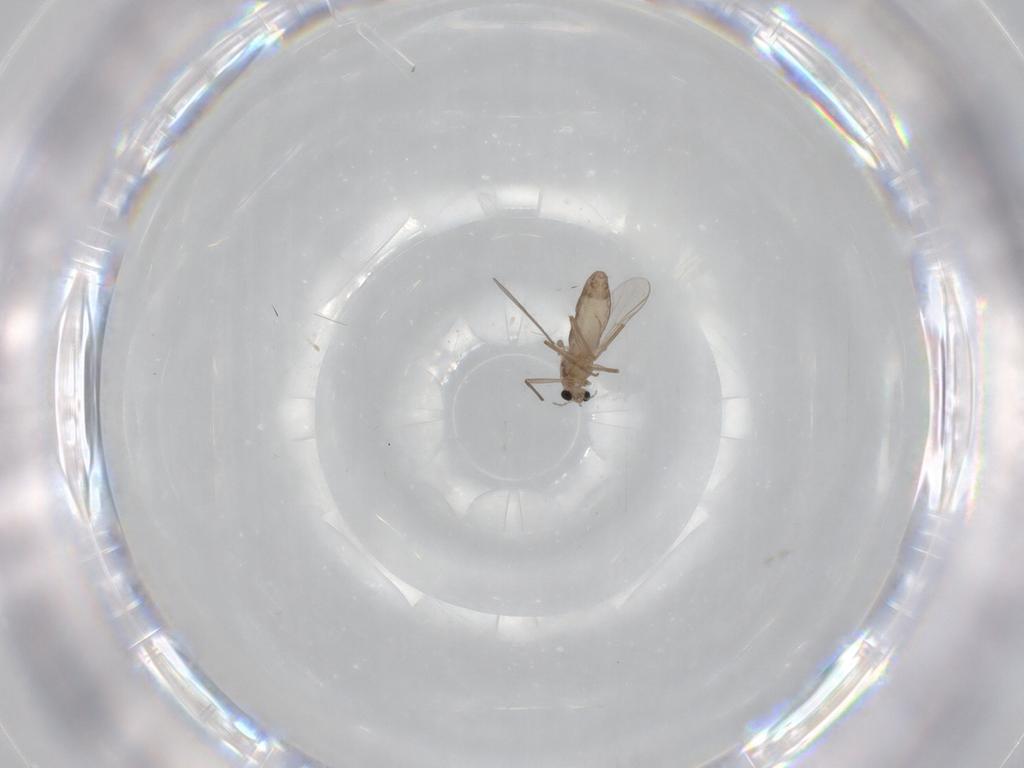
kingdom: Animalia
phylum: Arthropoda
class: Insecta
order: Diptera
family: Chironomidae
